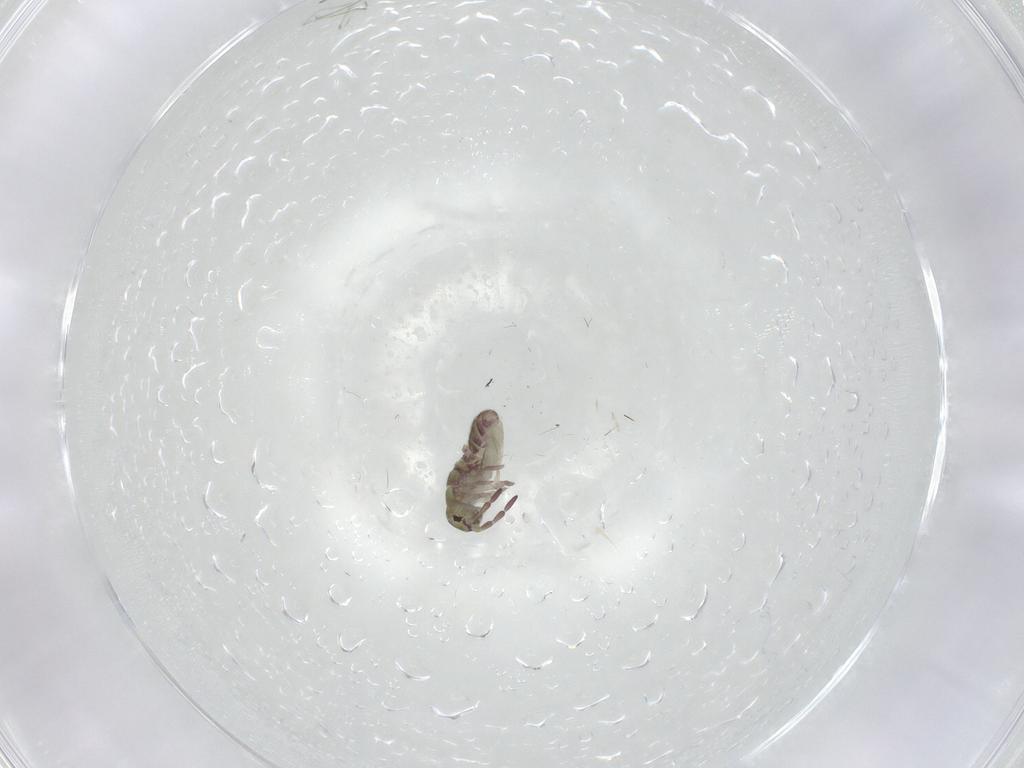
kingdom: Animalia
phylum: Arthropoda
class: Collembola
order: Entomobryomorpha
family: Isotomidae
